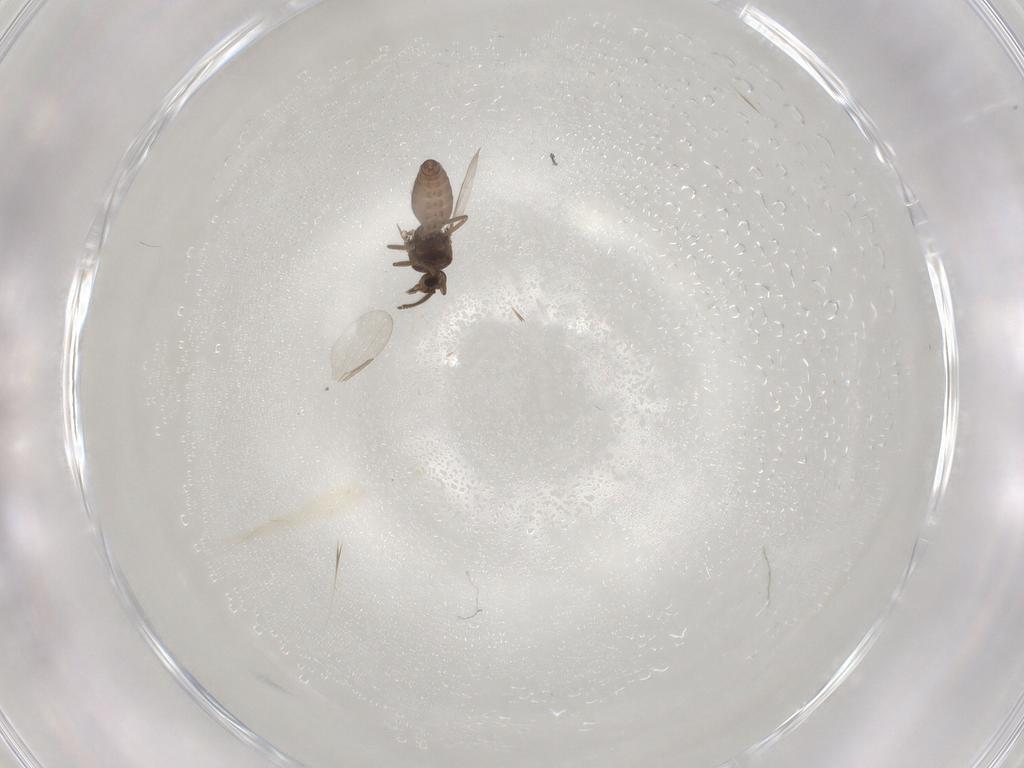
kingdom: Animalia
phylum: Arthropoda
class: Insecta
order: Diptera
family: Ceratopogonidae
